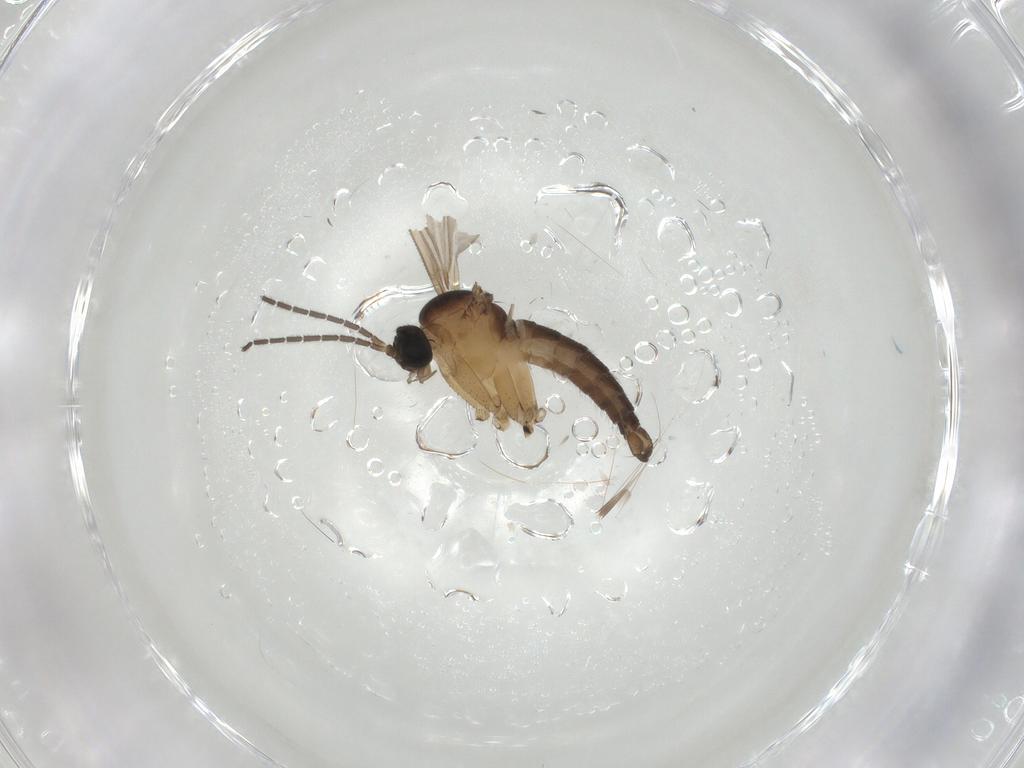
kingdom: Animalia
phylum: Arthropoda
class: Insecta
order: Diptera
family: Sciaridae
